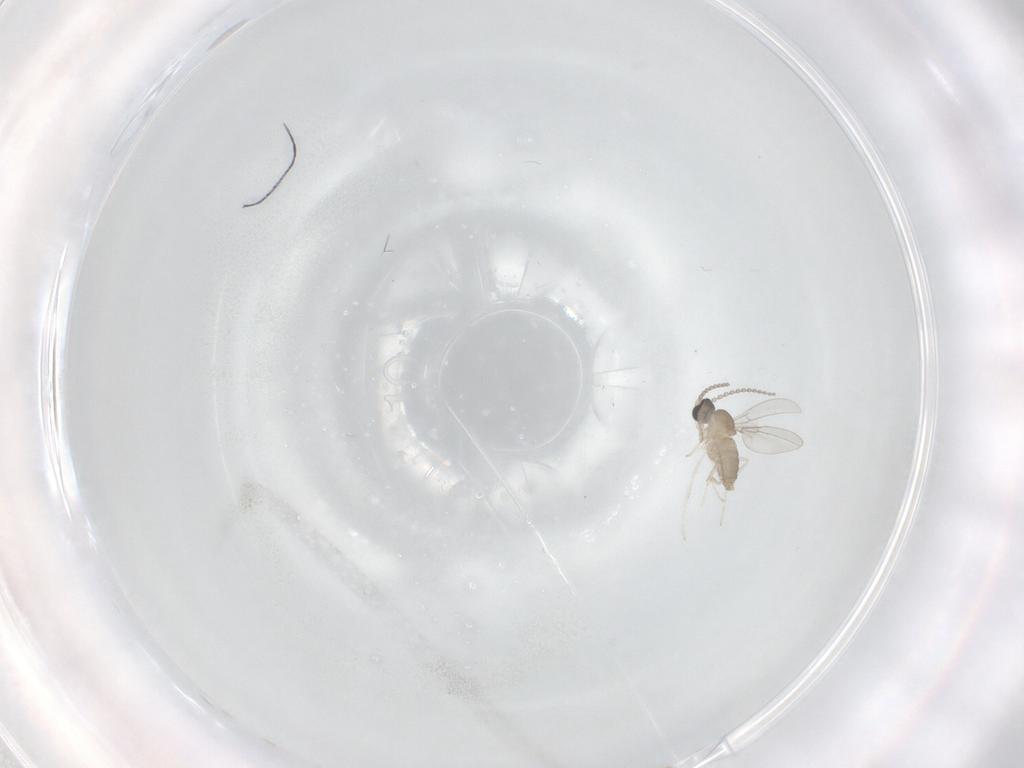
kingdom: Animalia
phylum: Arthropoda
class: Insecta
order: Diptera
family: Cecidomyiidae
